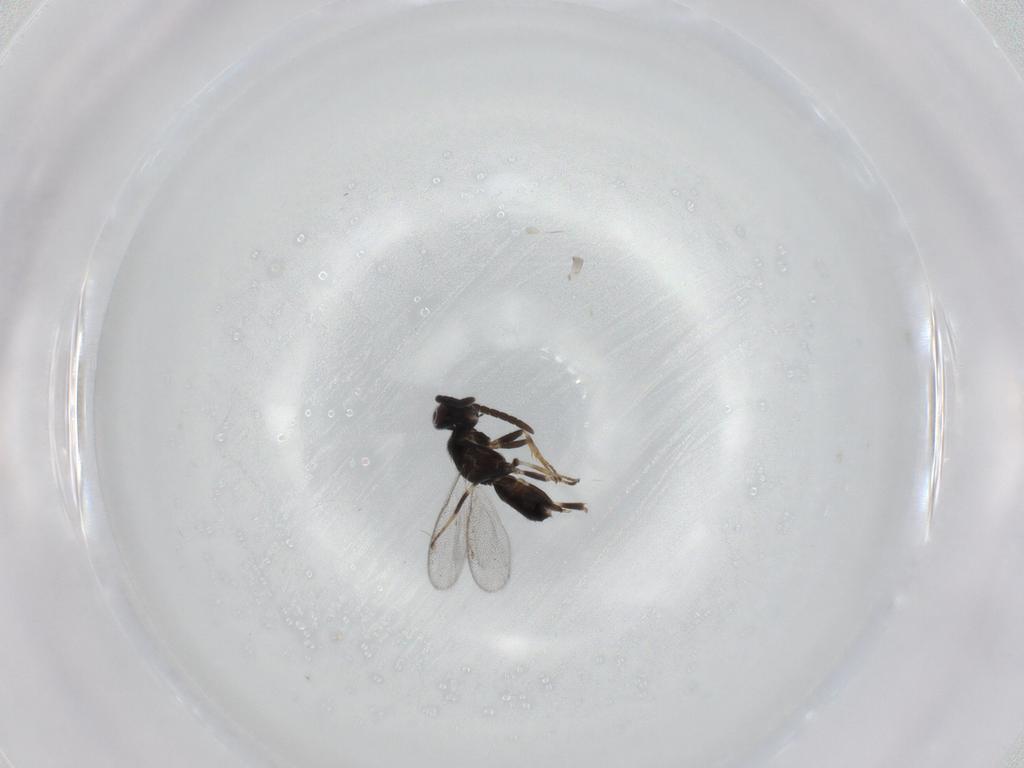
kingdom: Animalia
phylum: Arthropoda
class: Insecta
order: Hymenoptera
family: Eupelmidae
